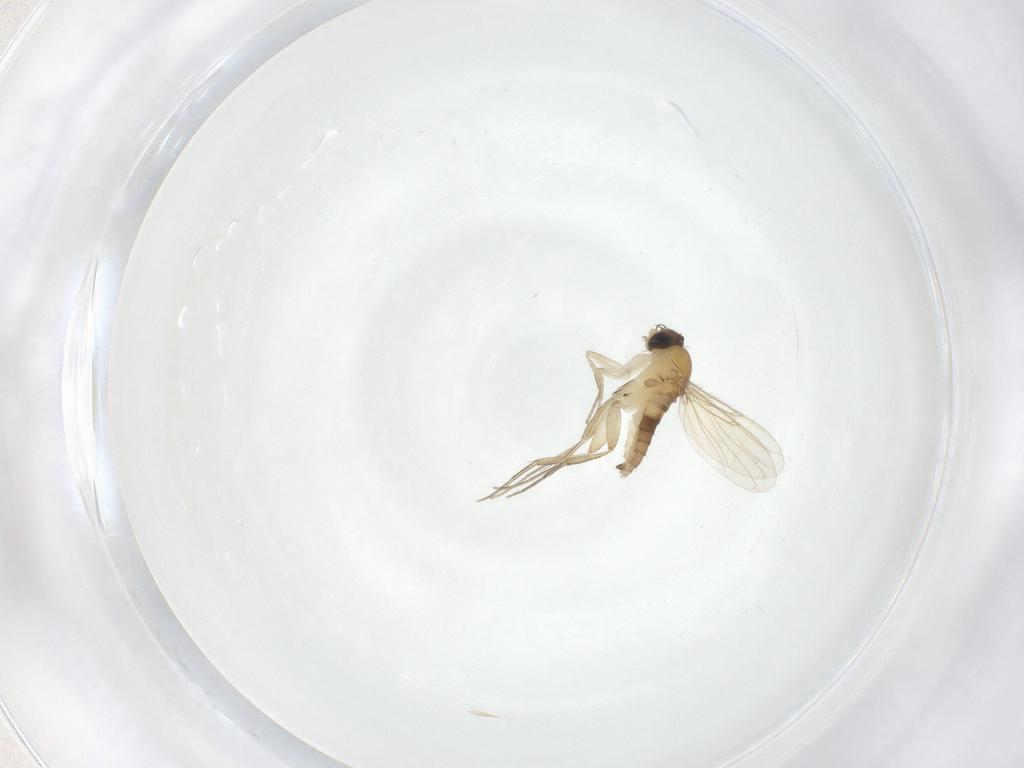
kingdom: Animalia
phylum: Arthropoda
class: Insecta
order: Diptera
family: Phoridae
